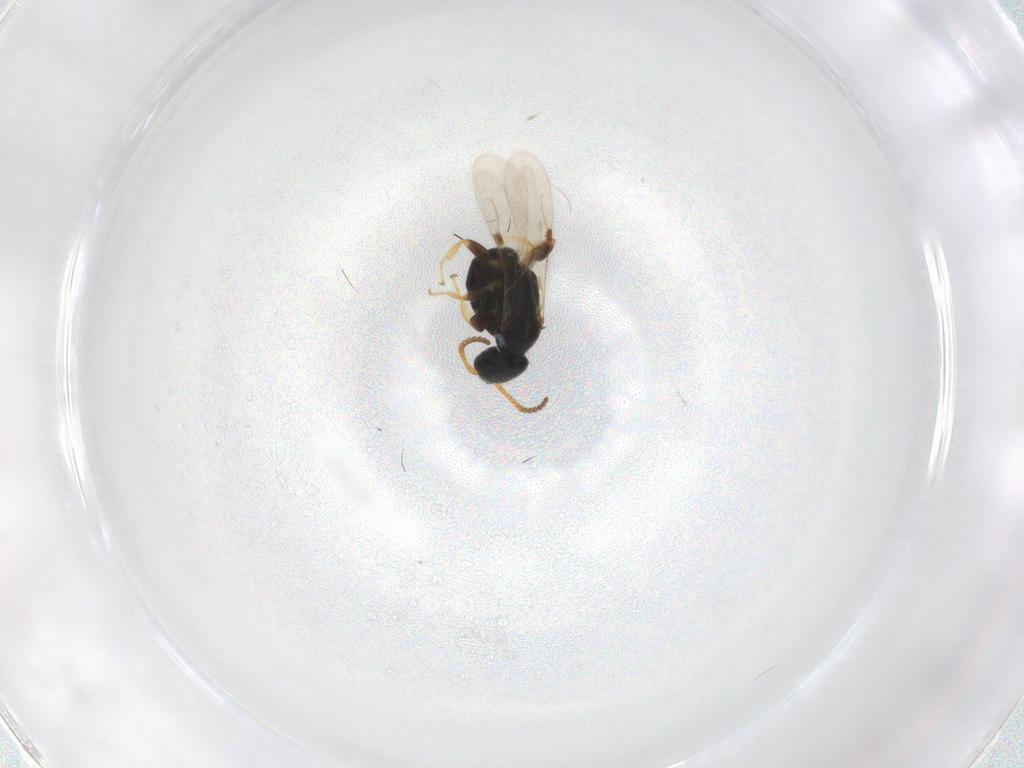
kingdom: Animalia
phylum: Arthropoda
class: Insecta
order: Hymenoptera
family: Bethylidae
